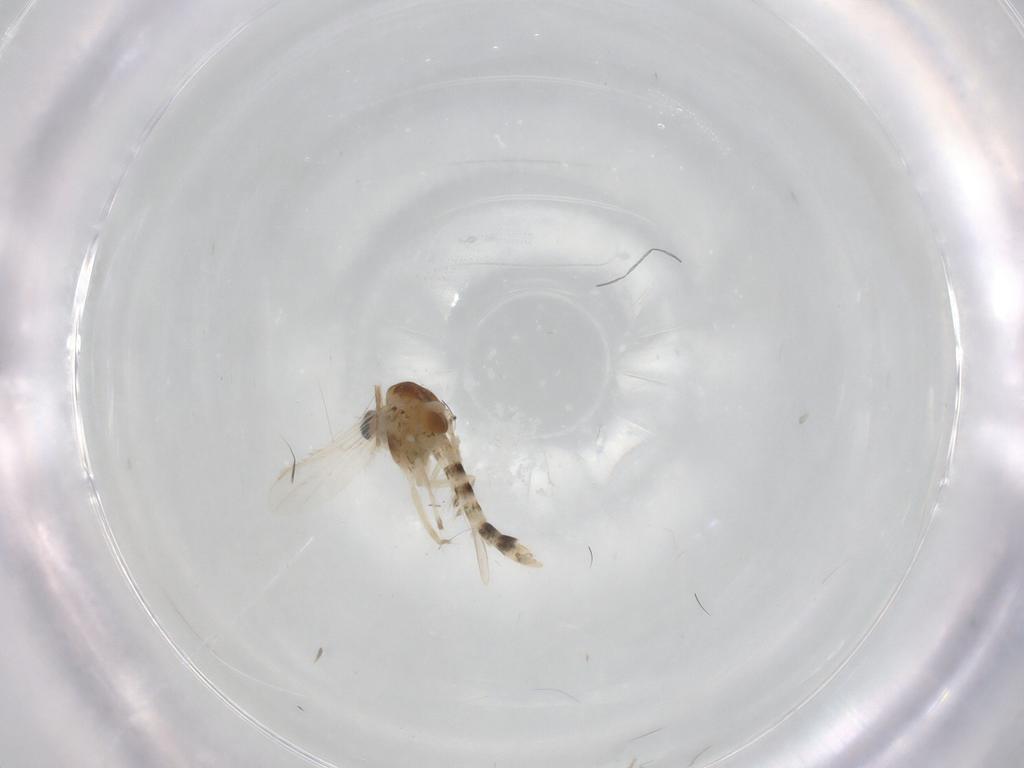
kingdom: Animalia
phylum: Arthropoda
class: Insecta
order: Diptera
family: Chironomidae
